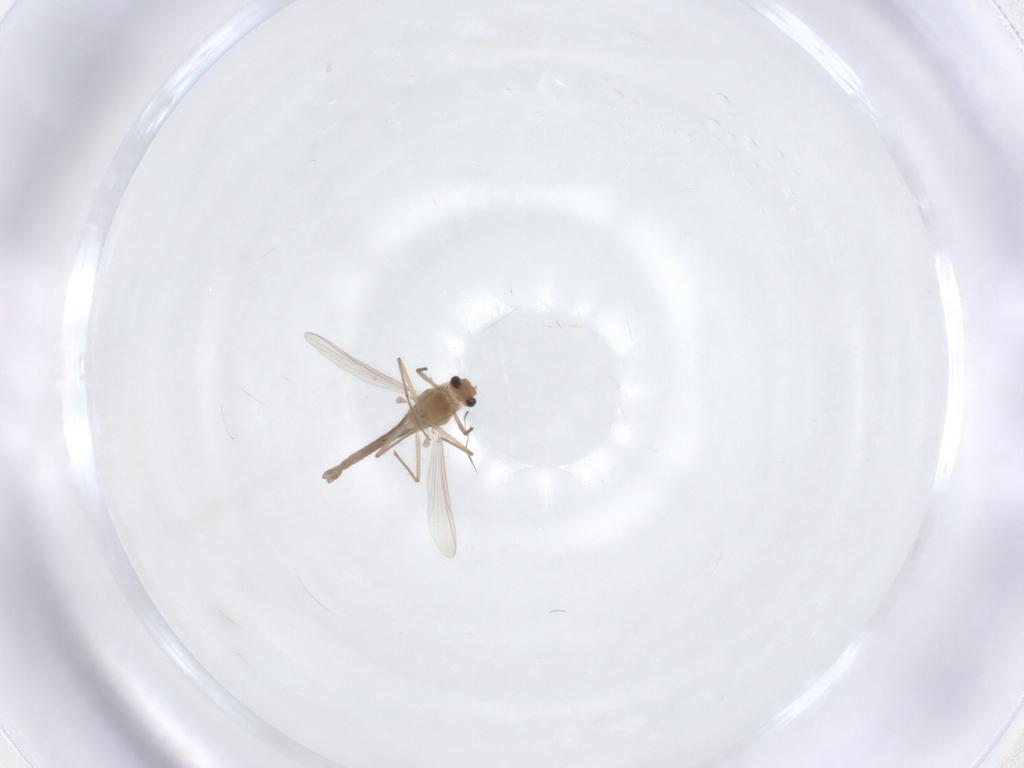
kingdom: Animalia
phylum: Arthropoda
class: Insecta
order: Diptera
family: Chironomidae
